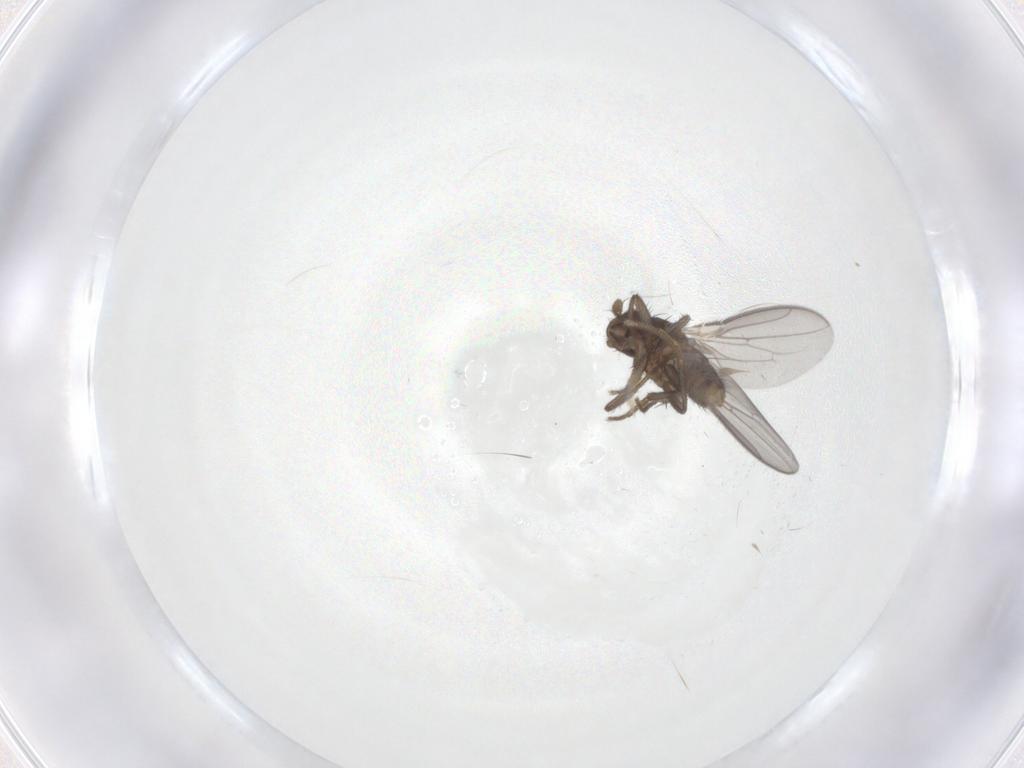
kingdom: Animalia
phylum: Arthropoda
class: Insecta
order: Diptera
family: Sphaeroceridae
